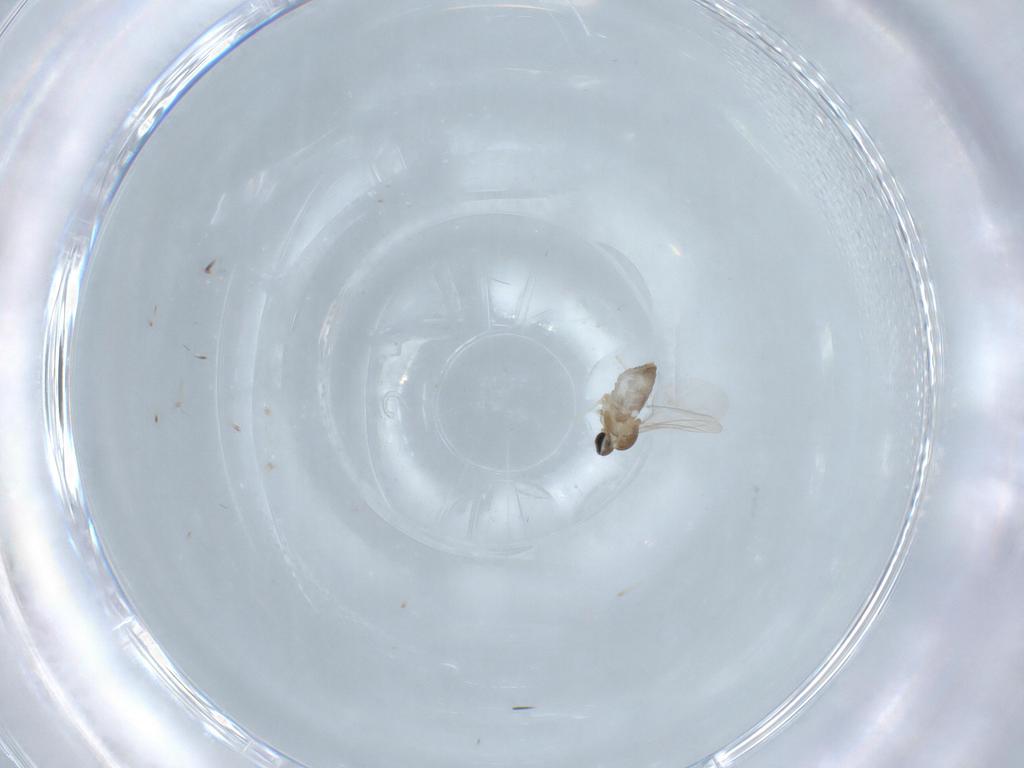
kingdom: Animalia
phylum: Arthropoda
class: Insecta
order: Diptera
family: Cecidomyiidae
